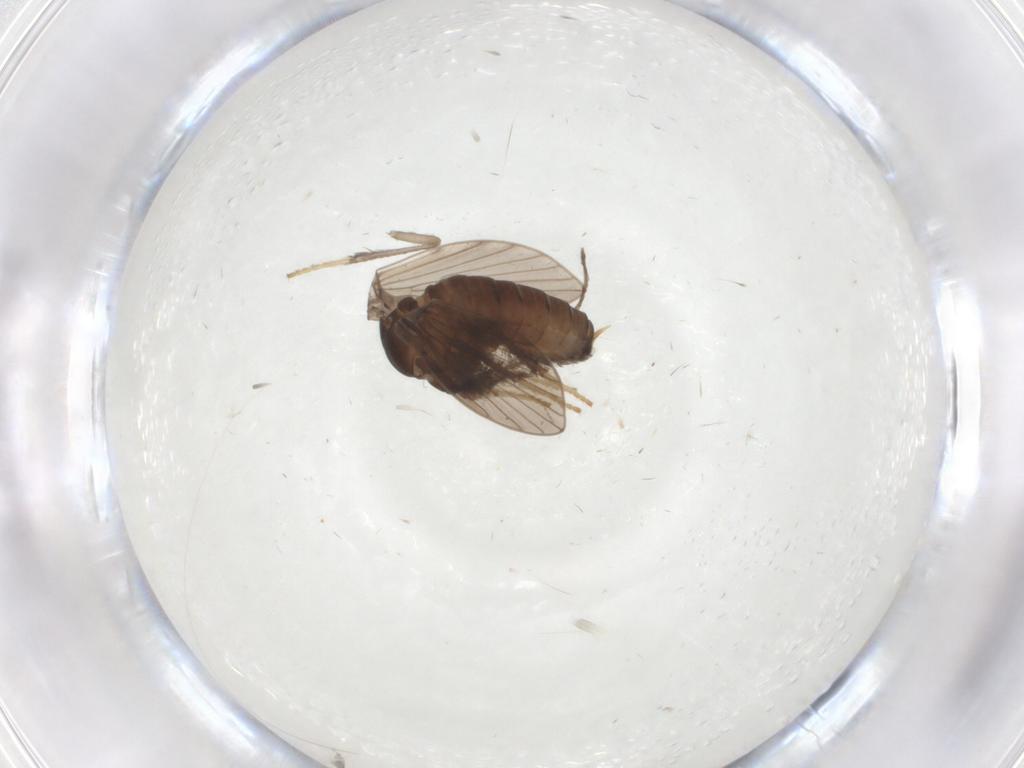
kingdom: Animalia
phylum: Arthropoda
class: Insecta
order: Diptera
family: Psychodidae
